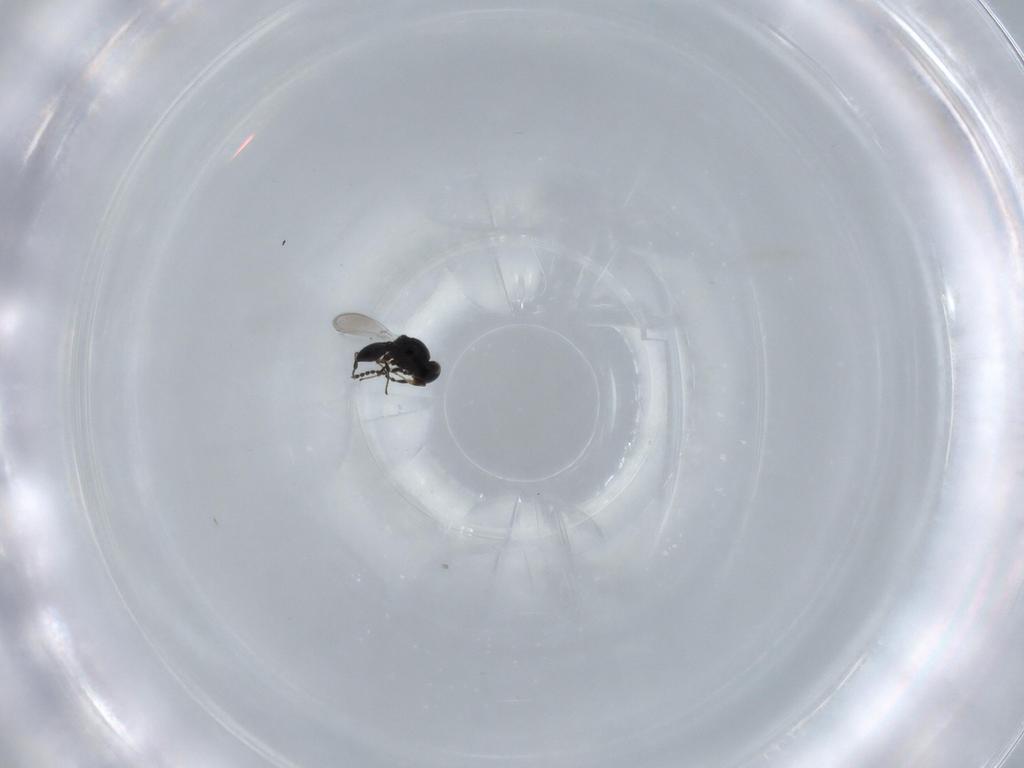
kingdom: Animalia
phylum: Arthropoda
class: Insecta
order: Hymenoptera
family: Platygastridae
